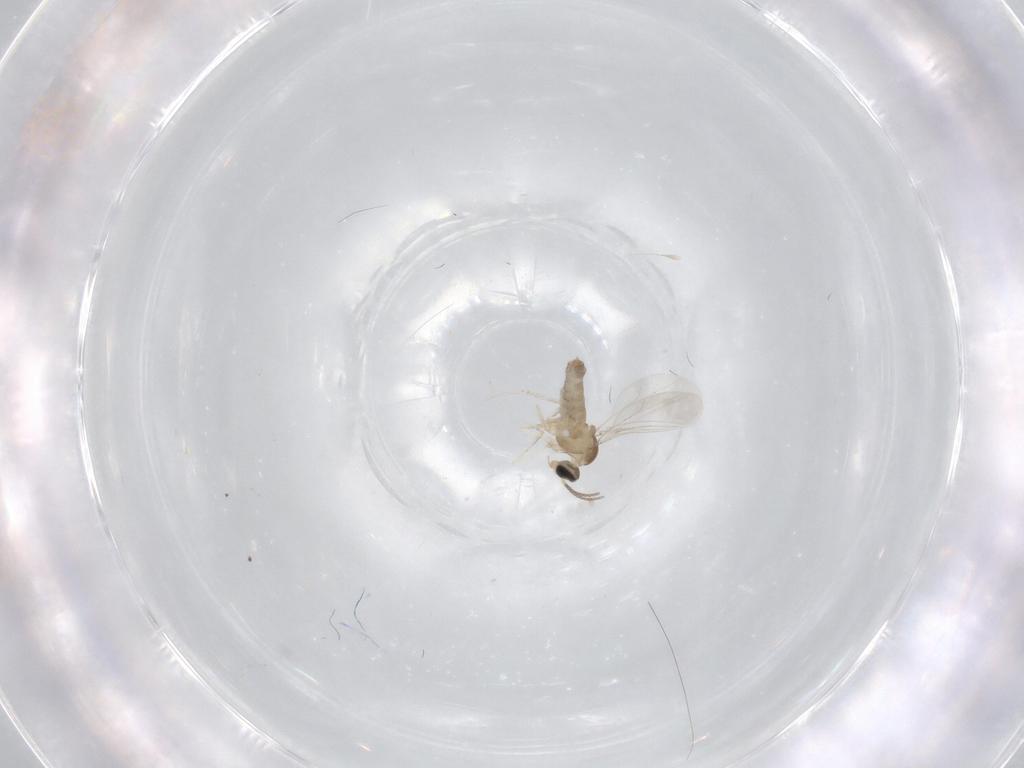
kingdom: Animalia
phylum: Arthropoda
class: Insecta
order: Diptera
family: Cecidomyiidae
